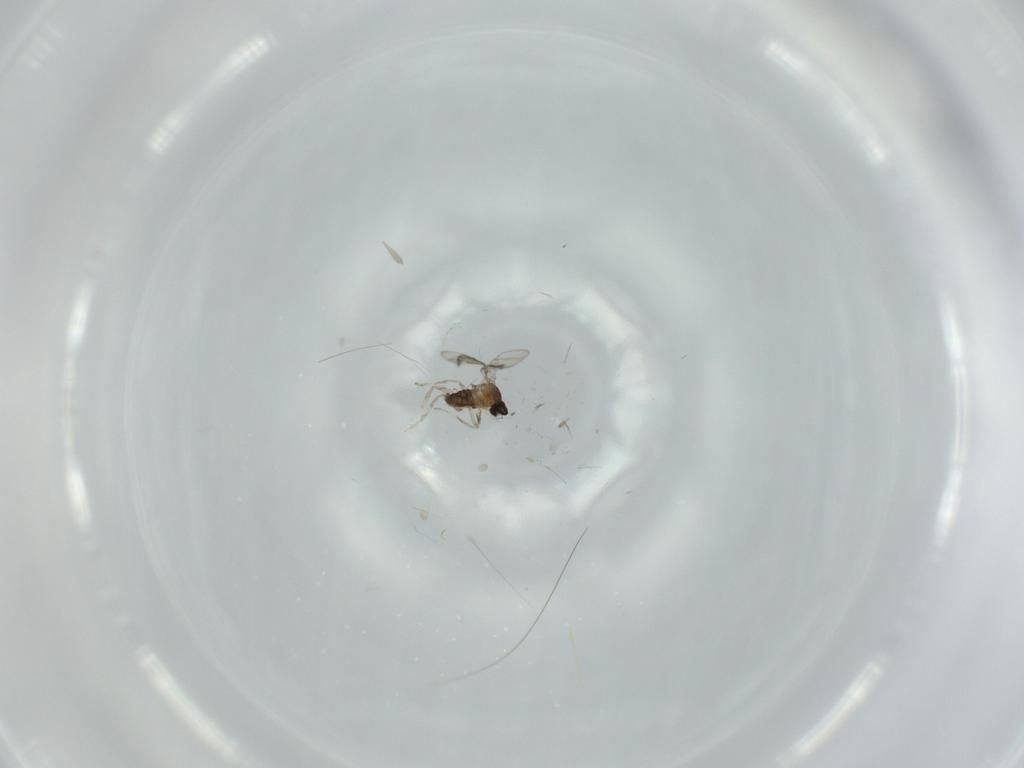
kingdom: Animalia
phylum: Arthropoda
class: Insecta
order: Diptera
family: Cecidomyiidae
